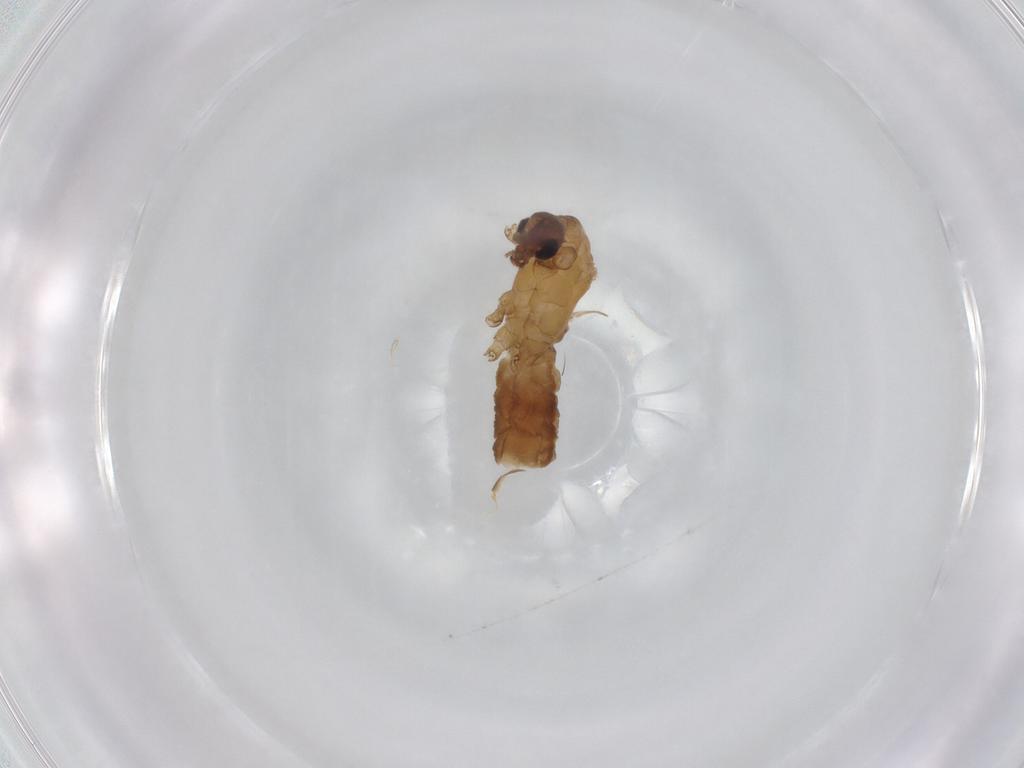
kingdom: Animalia
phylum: Arthropoda
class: Insecta
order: Diptera
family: Limoniidae
